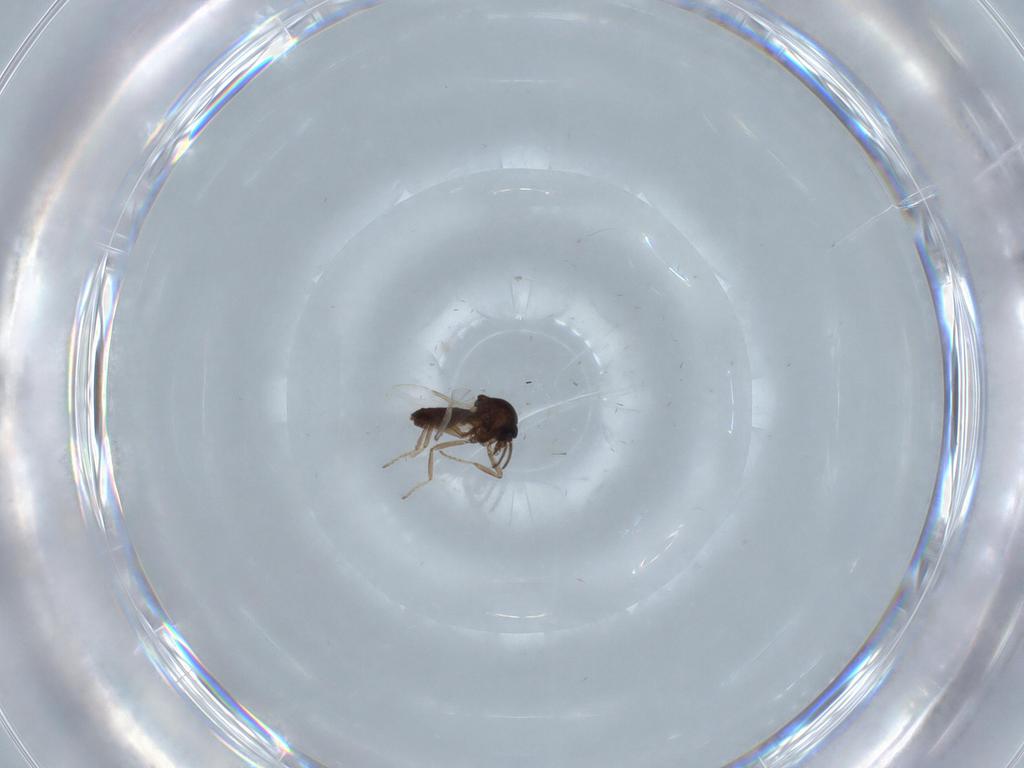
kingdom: Animalia
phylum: Arthropoda
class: Insecta
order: Diptera
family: Ceratopogonidae
